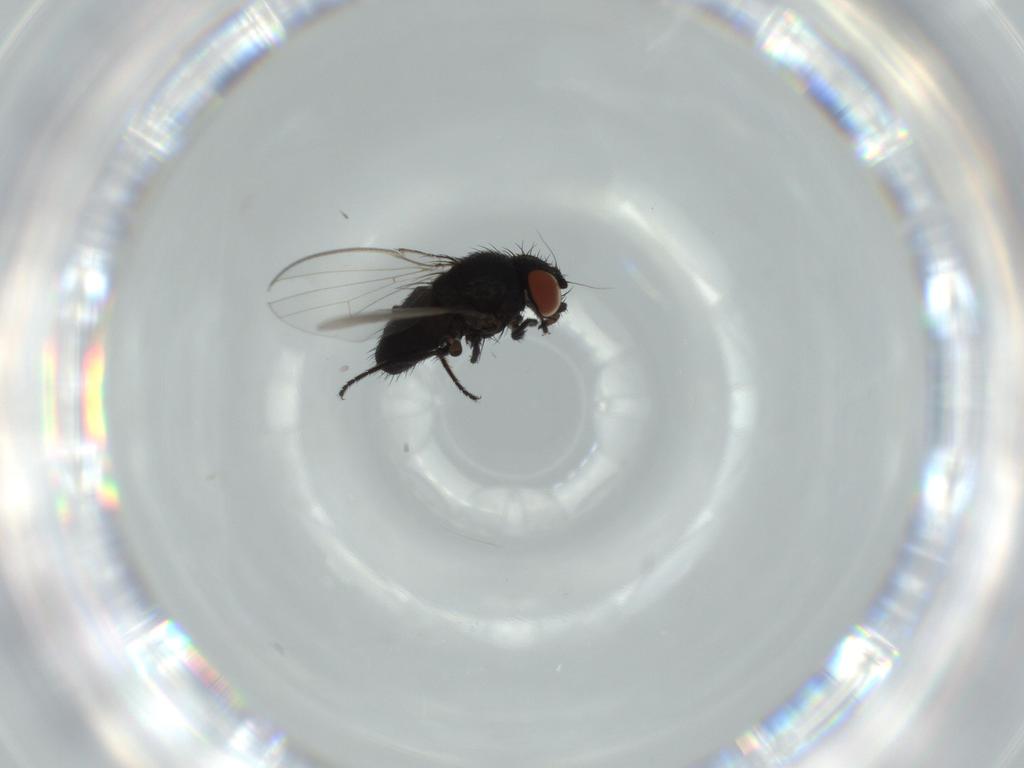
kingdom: Animalia
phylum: Arthropoda
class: Insecta
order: Diptera
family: Milichiidae
